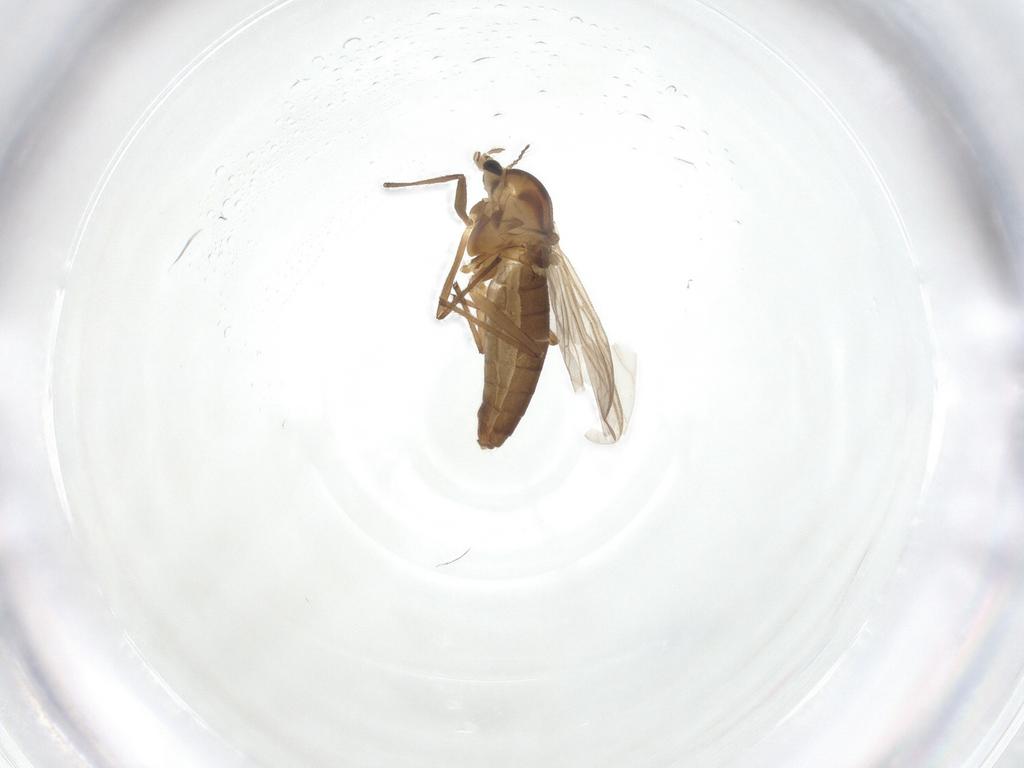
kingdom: Animalia
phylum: Arthropoda
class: Insecta
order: Diptera
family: Chironomidae
